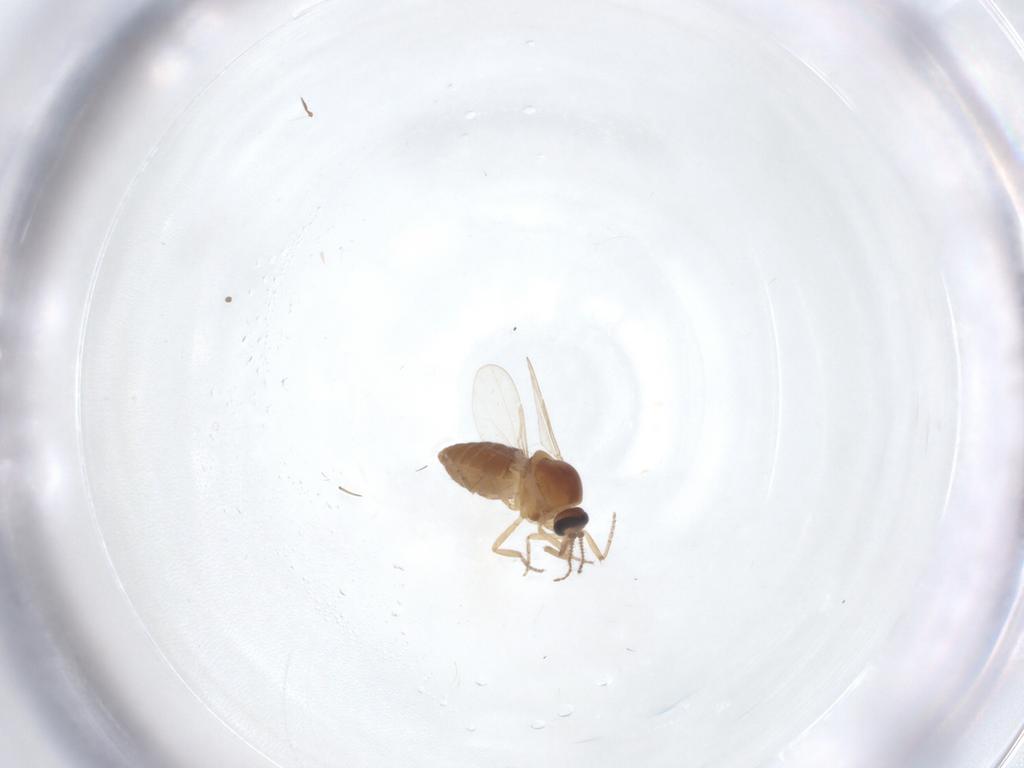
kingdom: Animalia
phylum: Arthropoda
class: Insecta
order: Diptera
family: Ceratopogonidae
